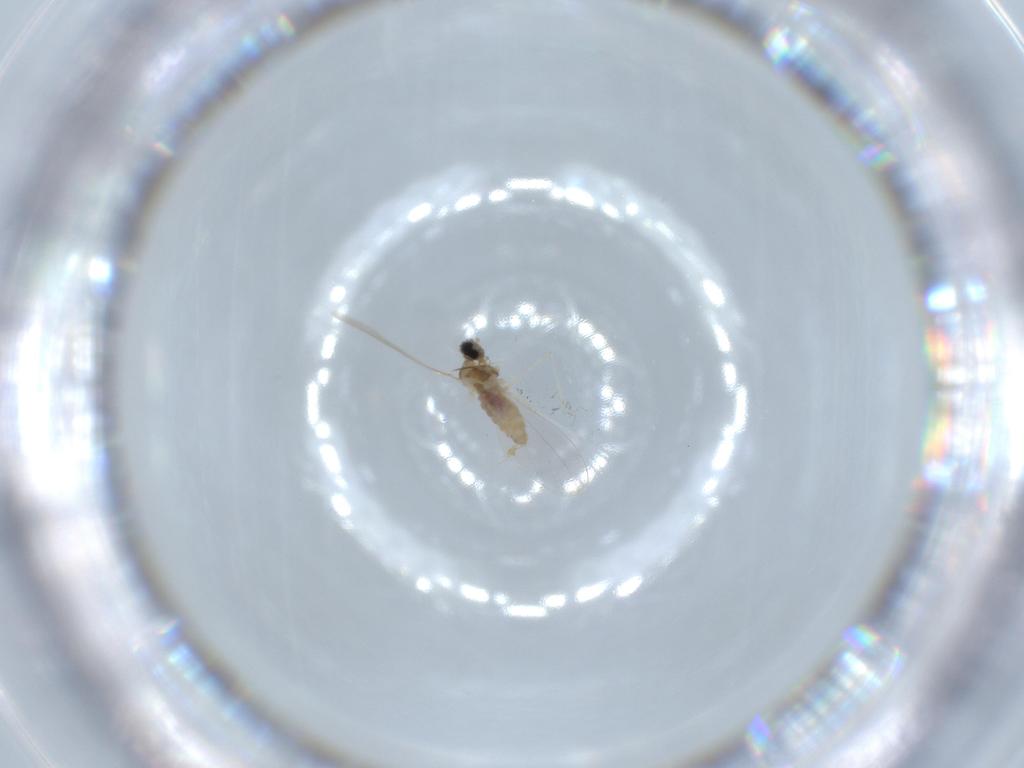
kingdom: Animalia
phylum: Arthropoda
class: Insecta
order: Diptera
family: Cecidomyiidae
